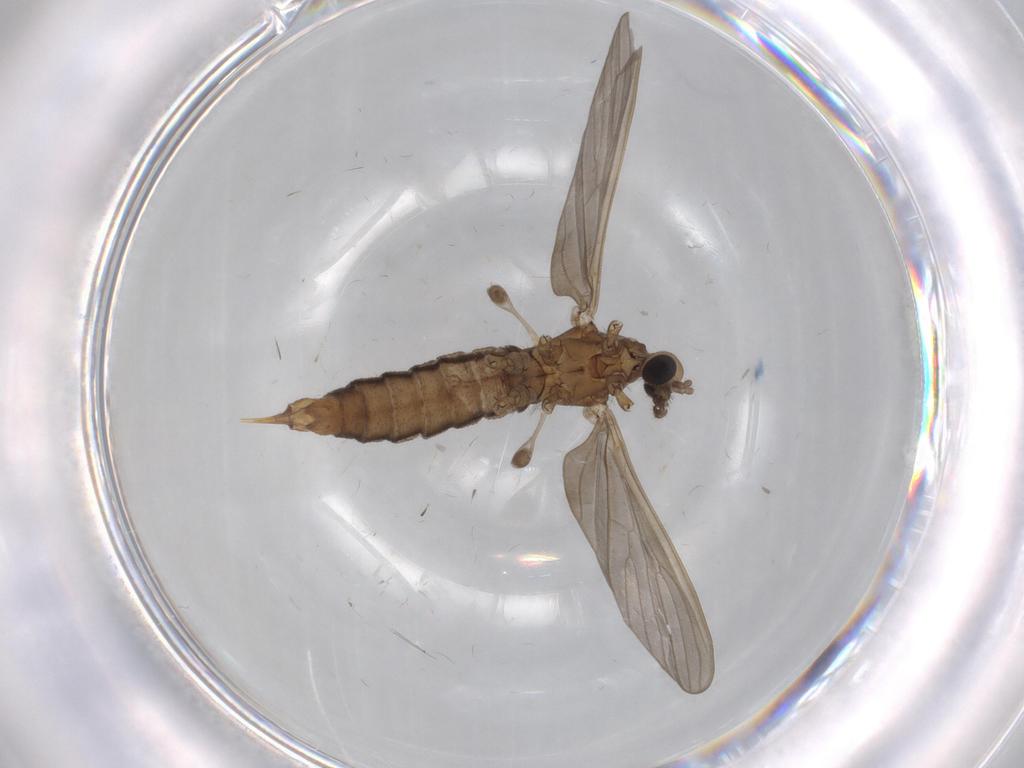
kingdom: Animalia
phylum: Arthropoda
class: Insecta
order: Diptera
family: Limoniidae
